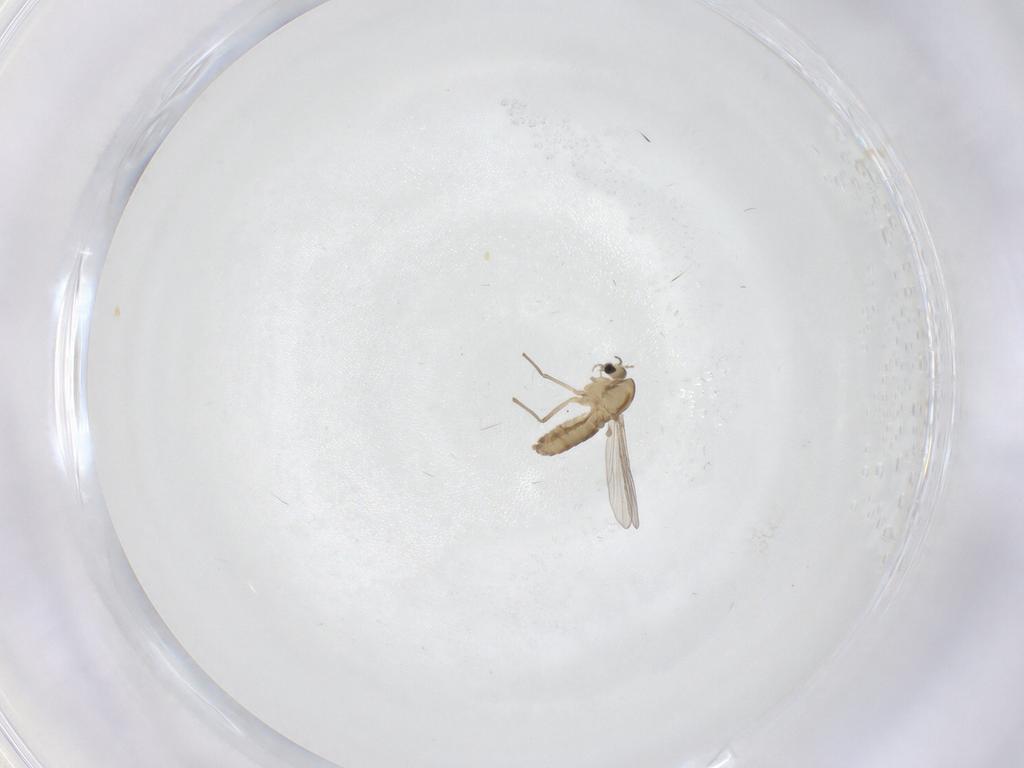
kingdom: Animalia
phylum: Arthropoda
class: Insecta
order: Diptera
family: Chironomidae
